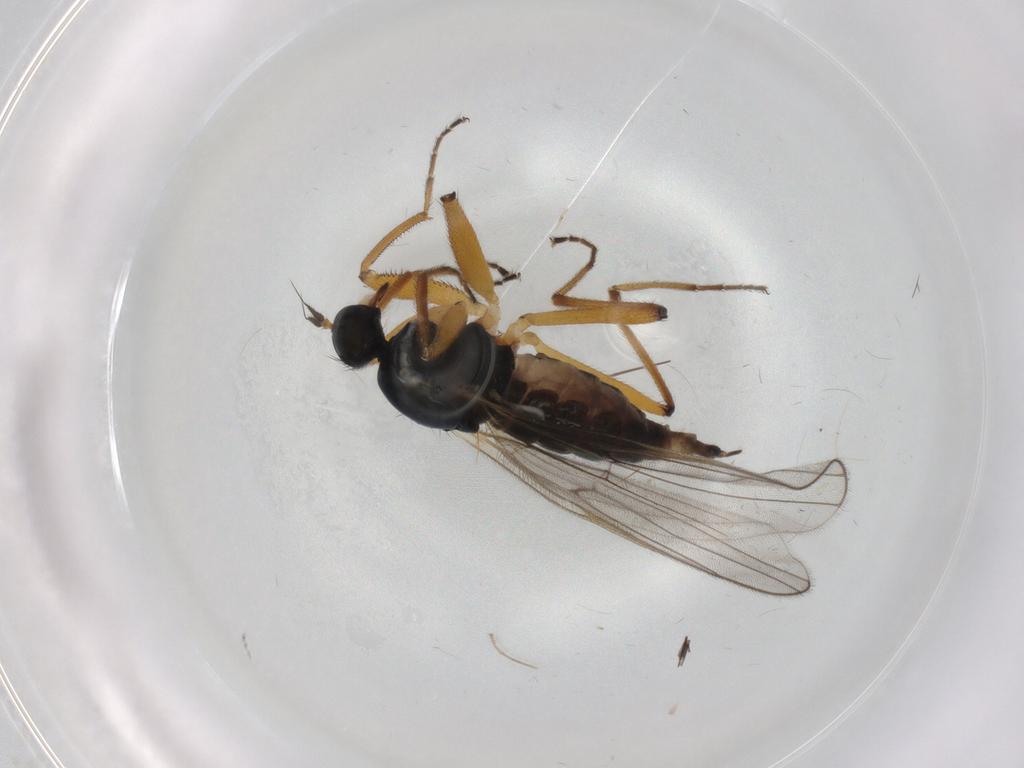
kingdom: Animalia
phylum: Arthropoda
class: Insecta
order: Diptera
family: Hybotidae
